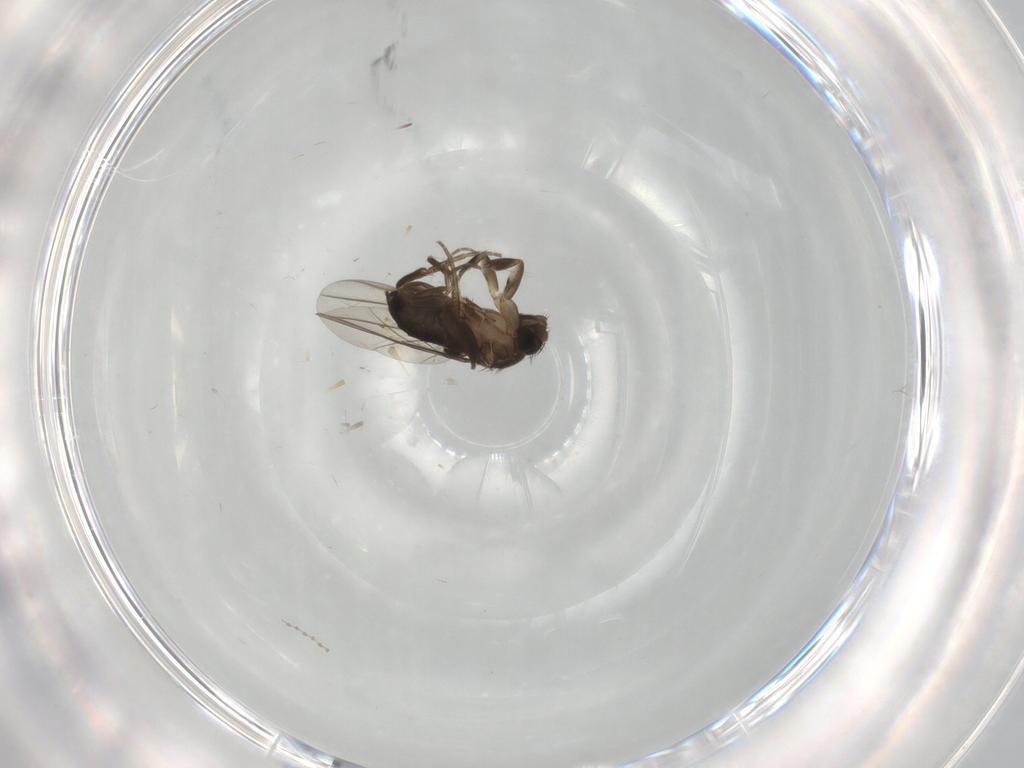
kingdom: Animalia
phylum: Arthropoda
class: Insecta
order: Diptera
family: Phoridae
